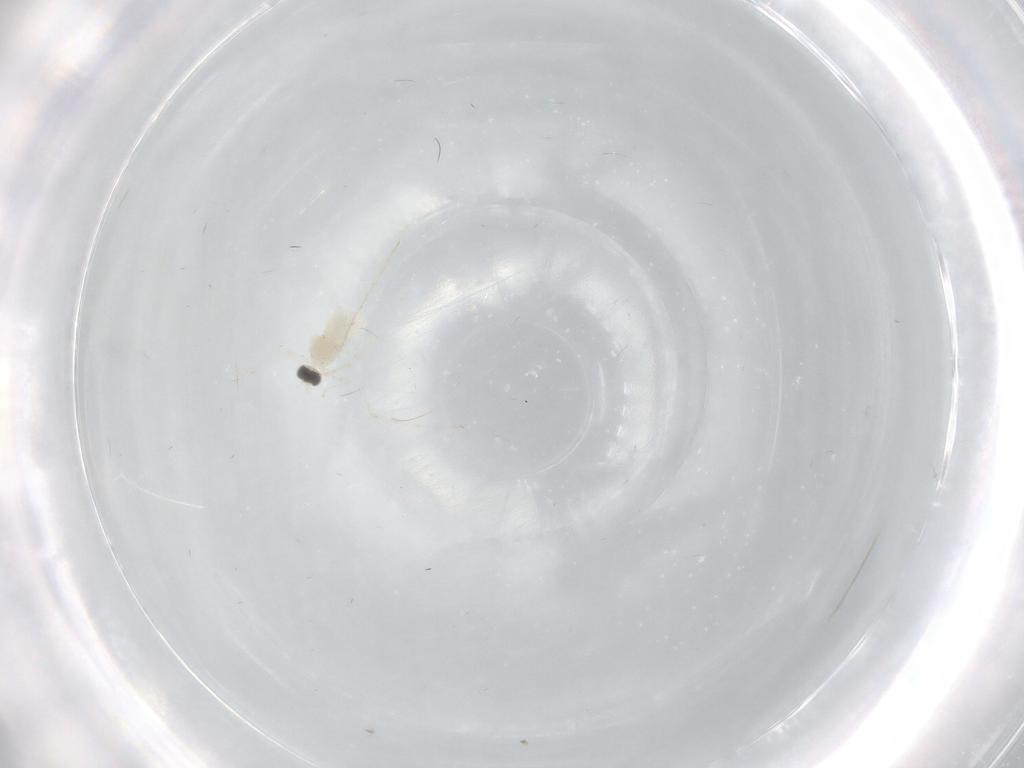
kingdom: Animalia
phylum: Arthropoda
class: Insecta
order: Diptera
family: Cecidomyiidae
